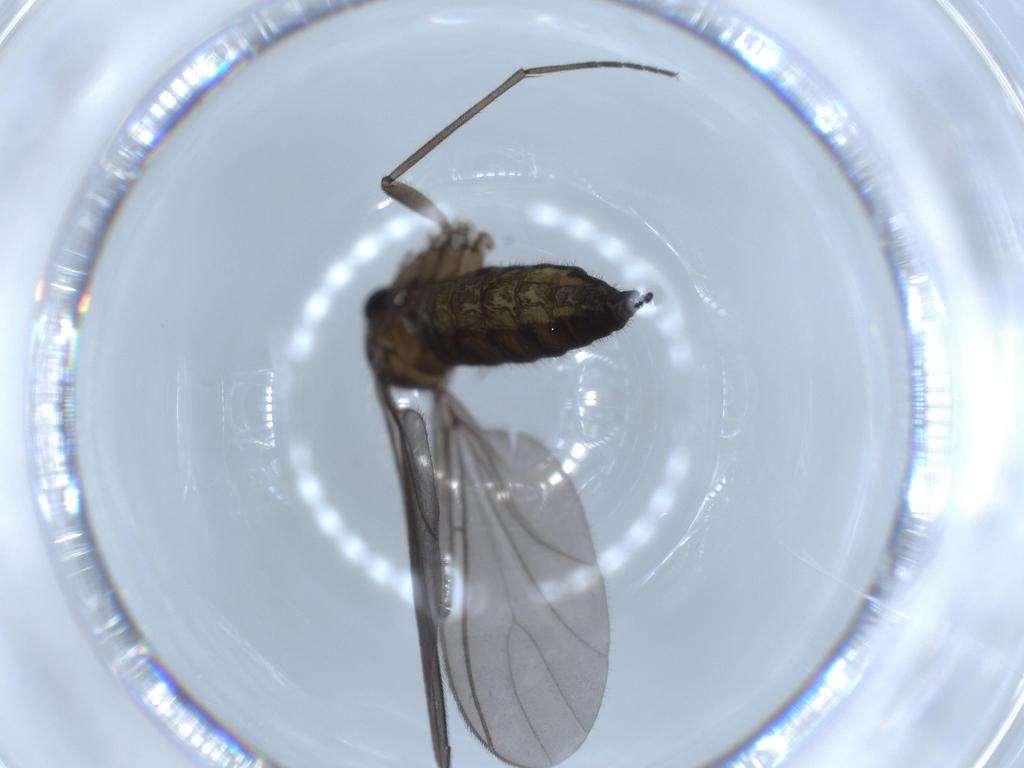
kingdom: Animalia
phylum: Arthropoda
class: Insecta
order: Diptera
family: Sciaridae
